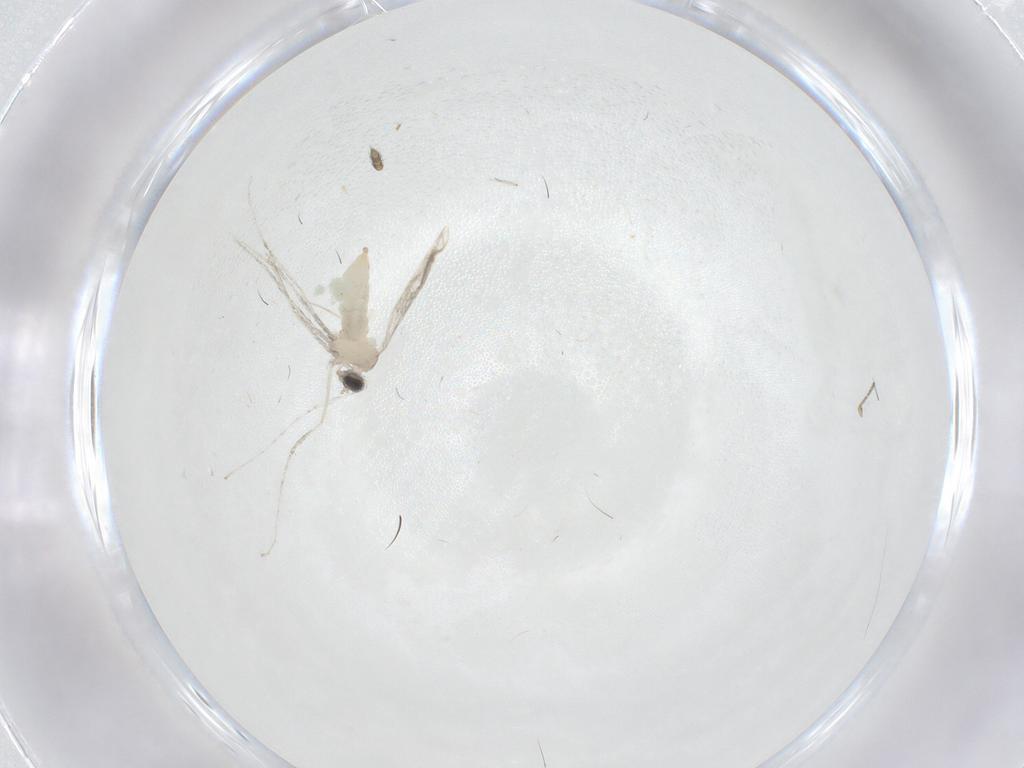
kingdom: Animalia
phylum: Arthropoda
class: Insecta
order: Diptera
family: Cecidomyiidae
